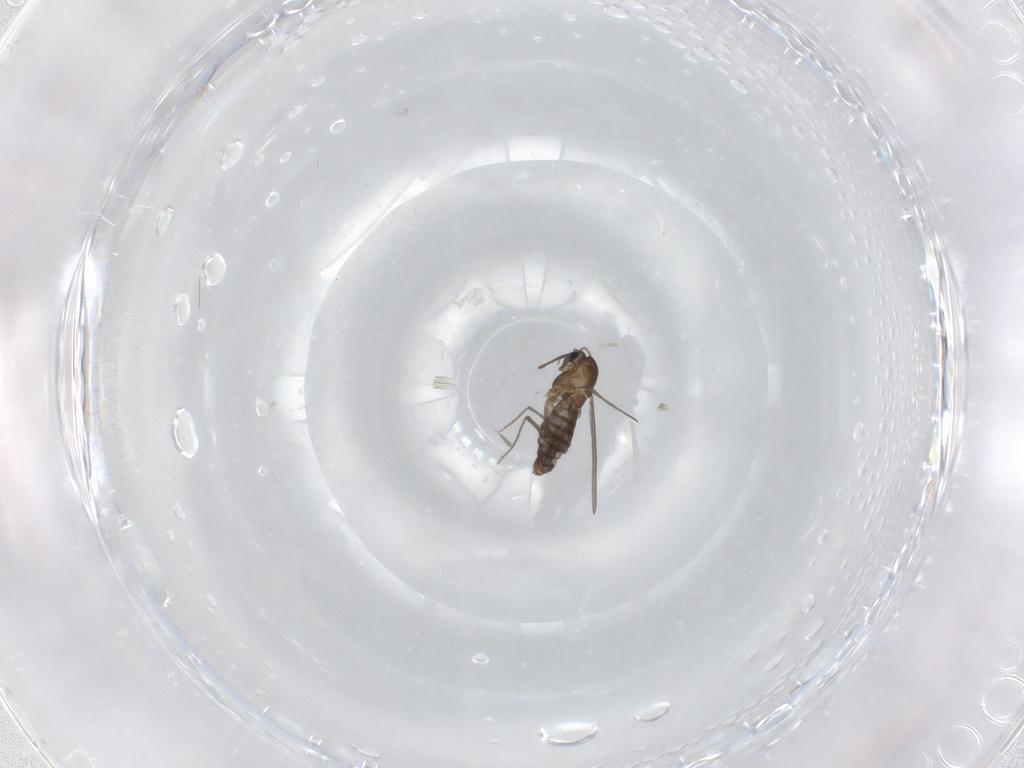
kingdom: Animalia
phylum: Arthropoda
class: Insecta
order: Diptera
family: Chironomidae
